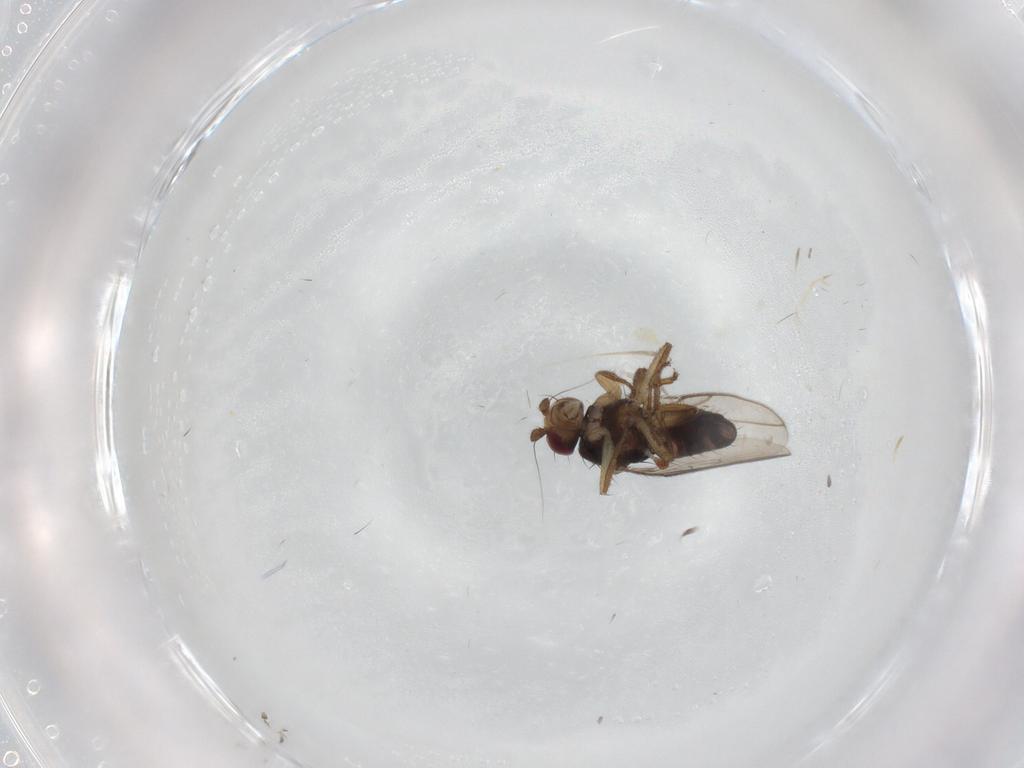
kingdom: Animalia
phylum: Arthropoda
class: Insecta
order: Diptera
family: Sphaeroceridae
